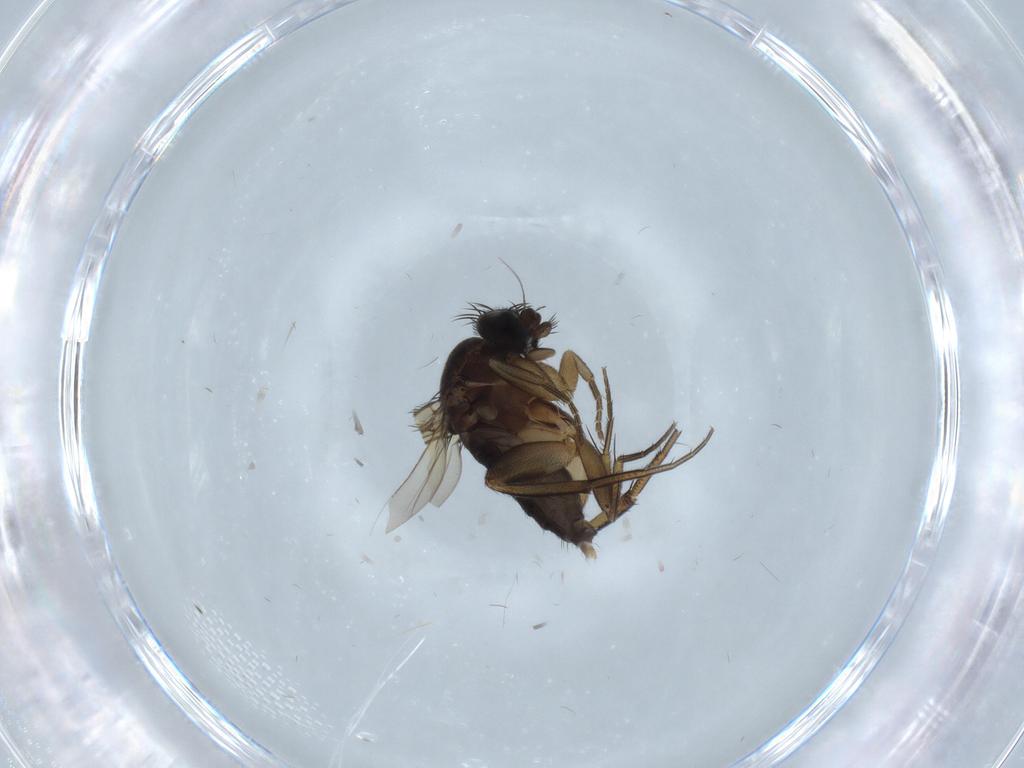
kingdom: Animalia
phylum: Arthropoda
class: Insecta
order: Diptera
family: Phoridae
